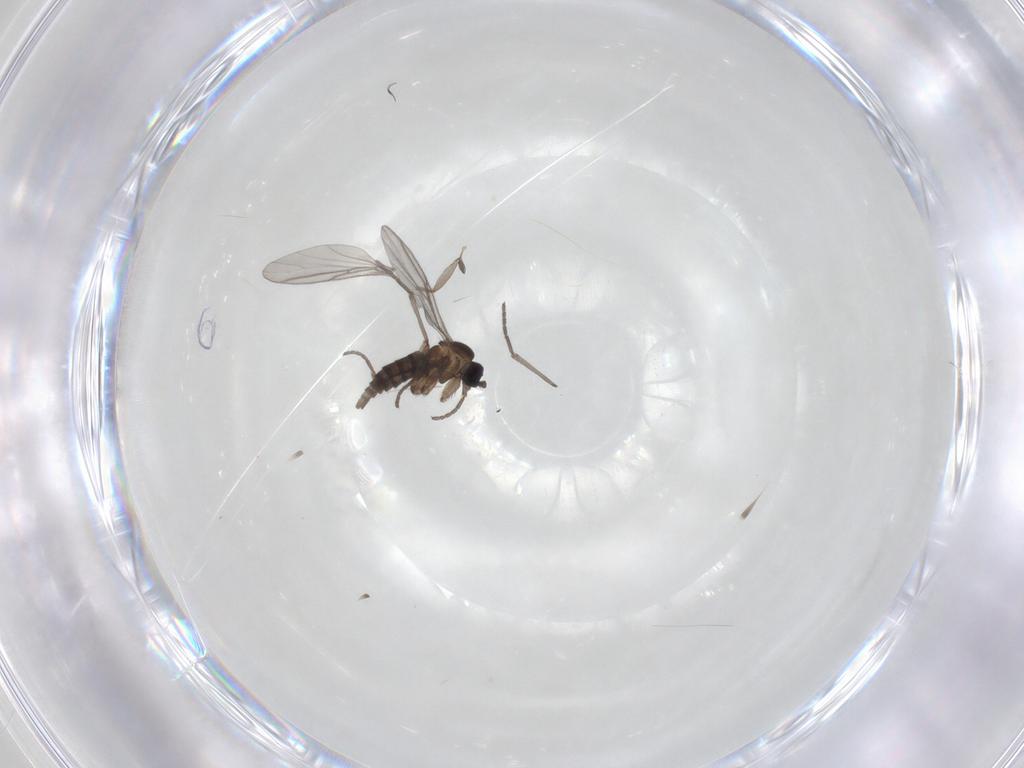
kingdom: Animalia
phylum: Arthropoda
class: Insecta
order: Diptera
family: Sciaridae
